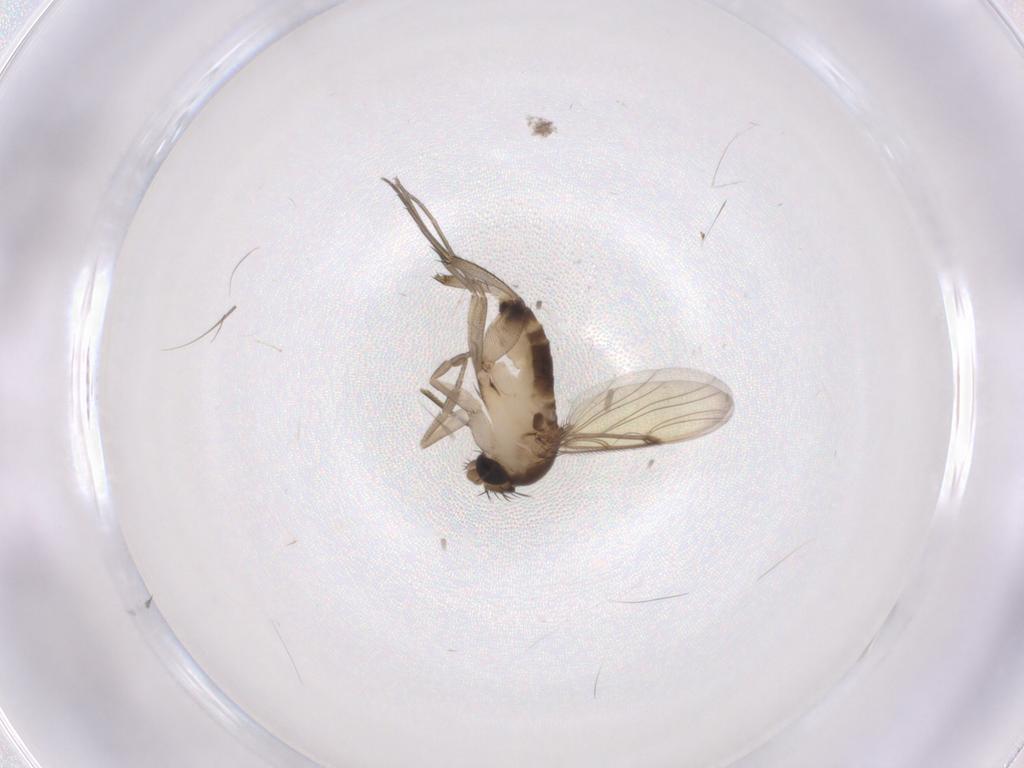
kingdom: Animalia
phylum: Arthropoda
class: Insecta
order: Diptera
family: Phoridae
